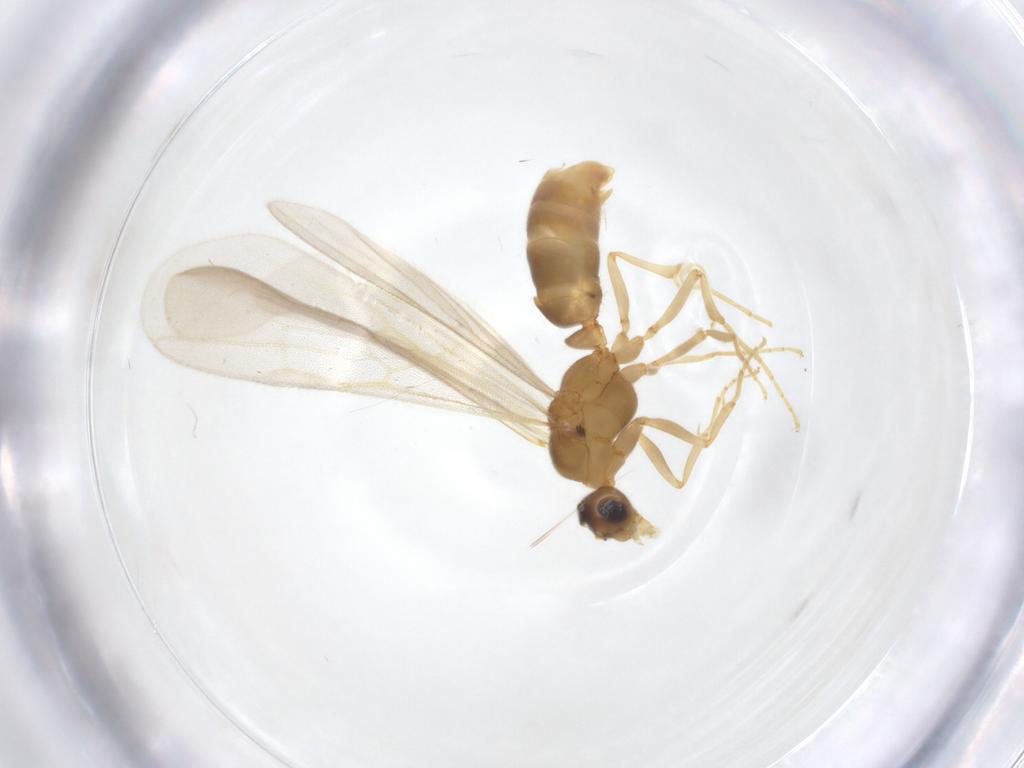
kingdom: Animalia
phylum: Arthropoda
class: Insecta
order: Hymenoptera
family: Formicidae
